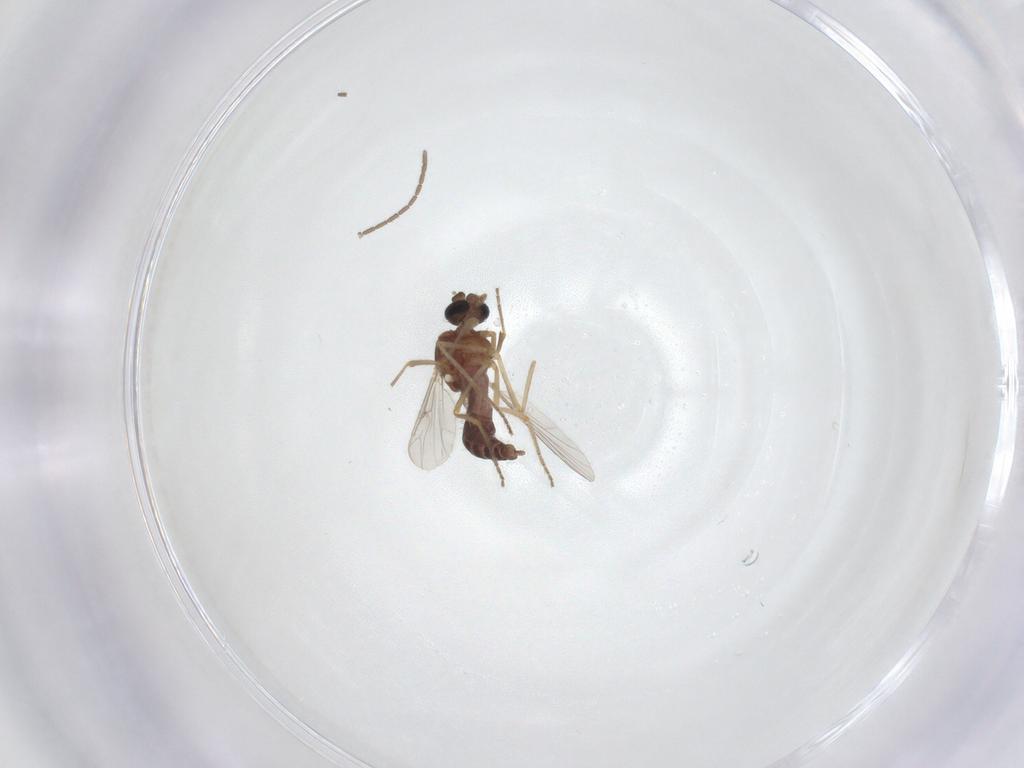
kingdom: Animalia
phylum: Arthropoda
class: Insecta
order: Diptera
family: Ceratopogonidae
